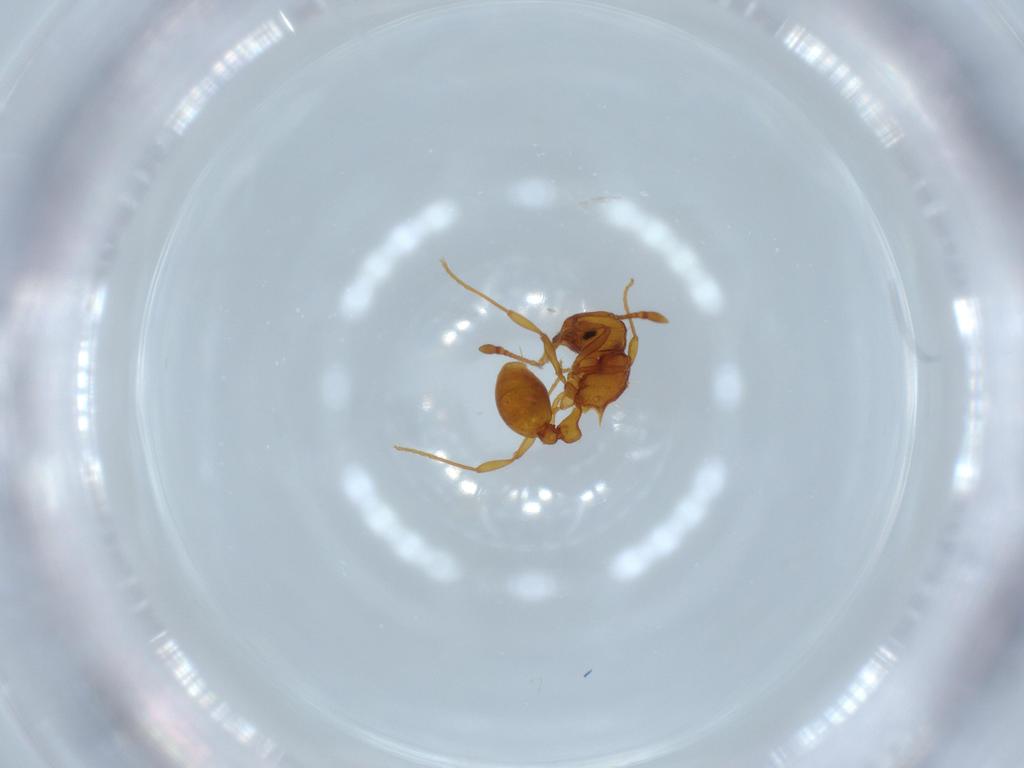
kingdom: Animalia
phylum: Arthropoda
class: Insecta
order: Hymenoptera
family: Formicidae
